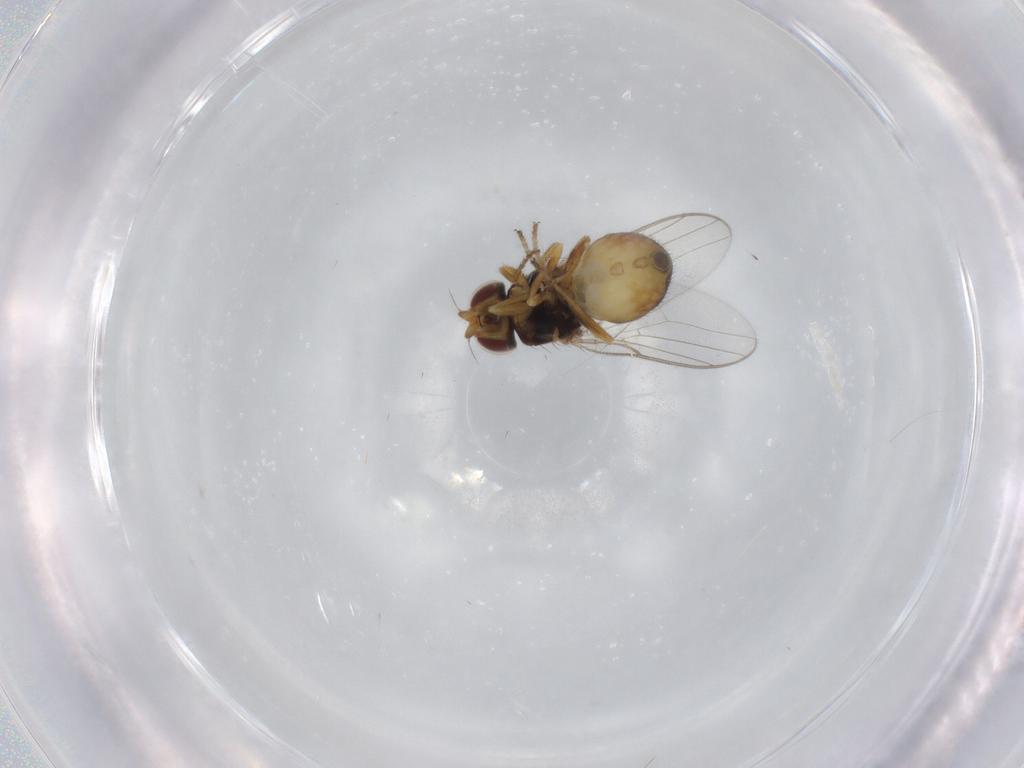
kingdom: Animalia
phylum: Arthropoda
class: Insecta
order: Diptera
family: Chloropidae
